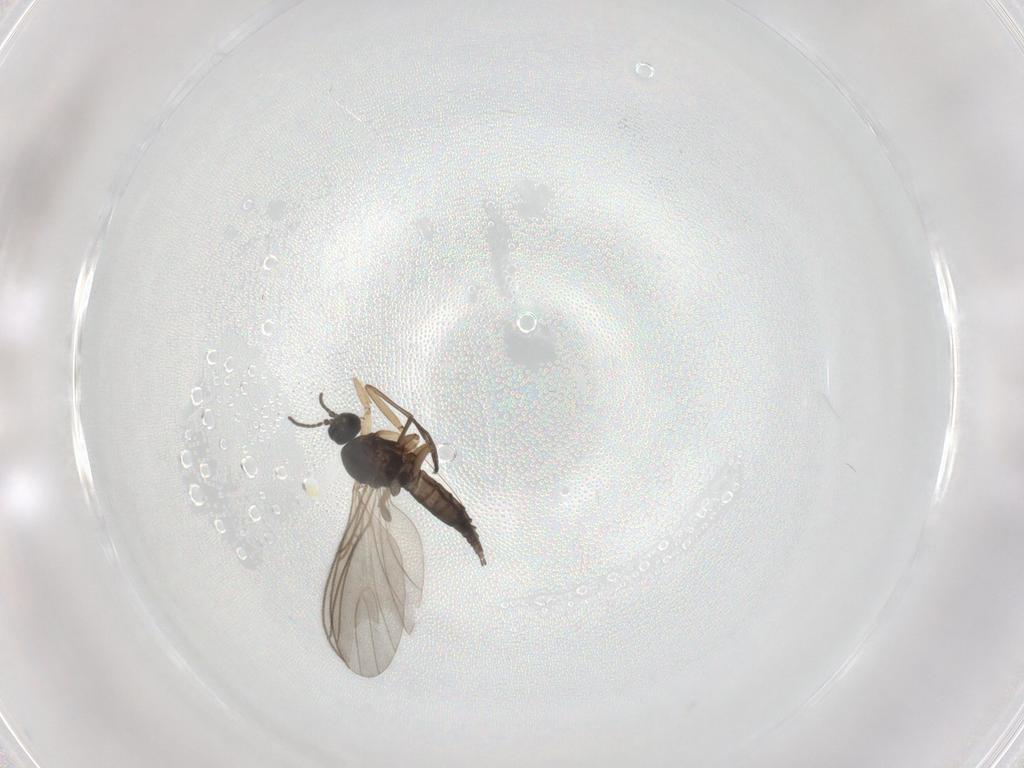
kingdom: Animalia
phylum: Arthropoda
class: Insecta
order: Diptera
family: Sciaridae
